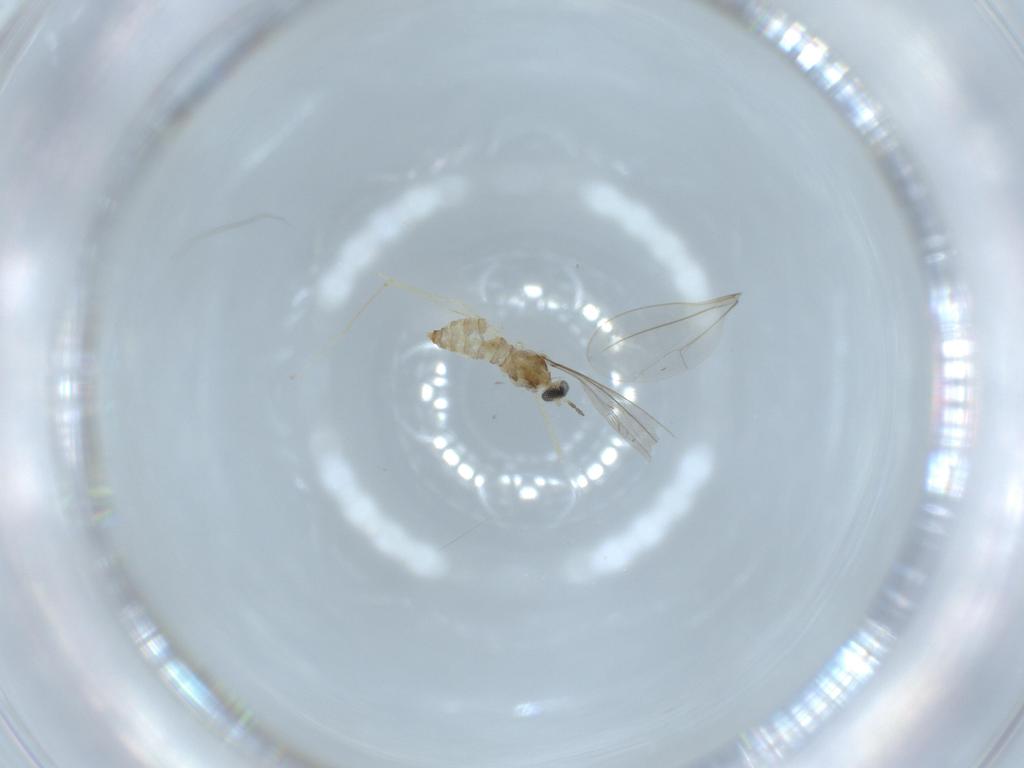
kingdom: Animalia
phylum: Arthropoda
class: Insecta
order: Diptera
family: Cecidomyiidae
